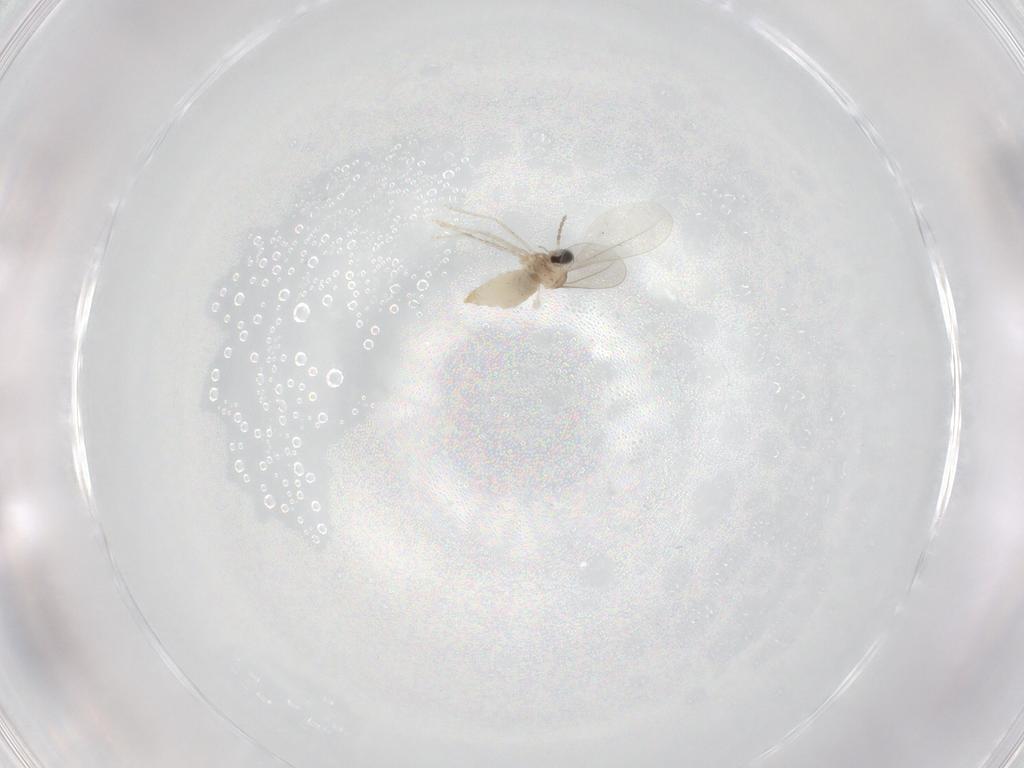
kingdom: Animalia
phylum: Arthropoda
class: Insecta
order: Diptera
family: Cecidomyiidae
